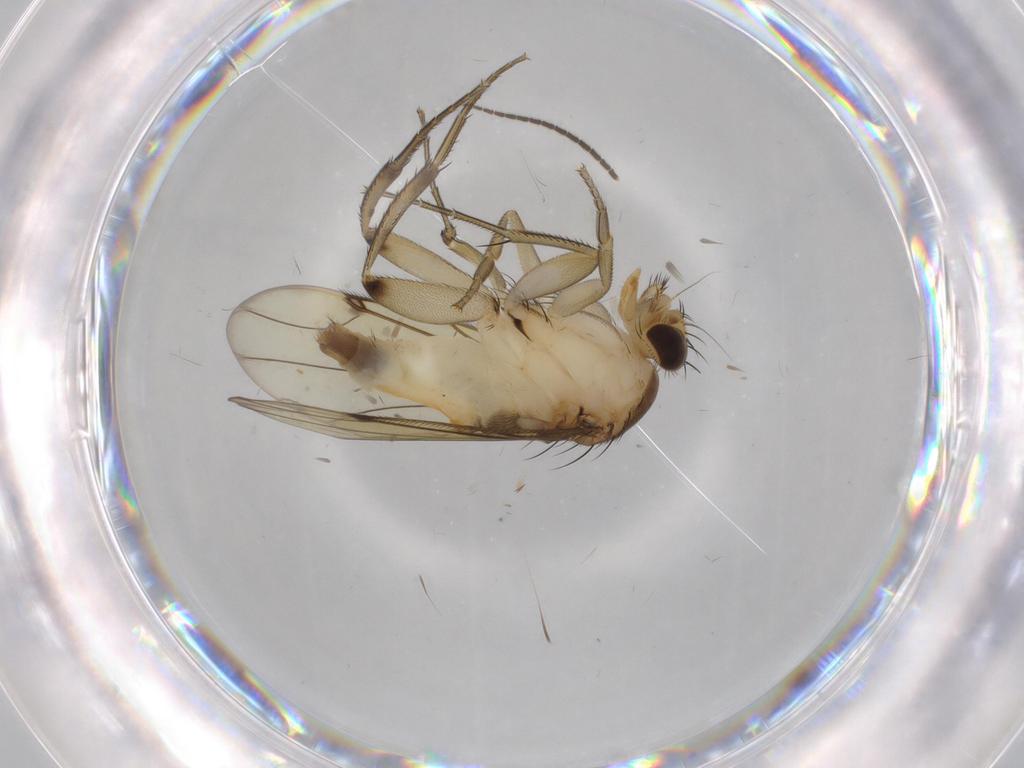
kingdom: Animalia
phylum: Arthropoda
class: Insecta
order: Diptera
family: Phoridae
